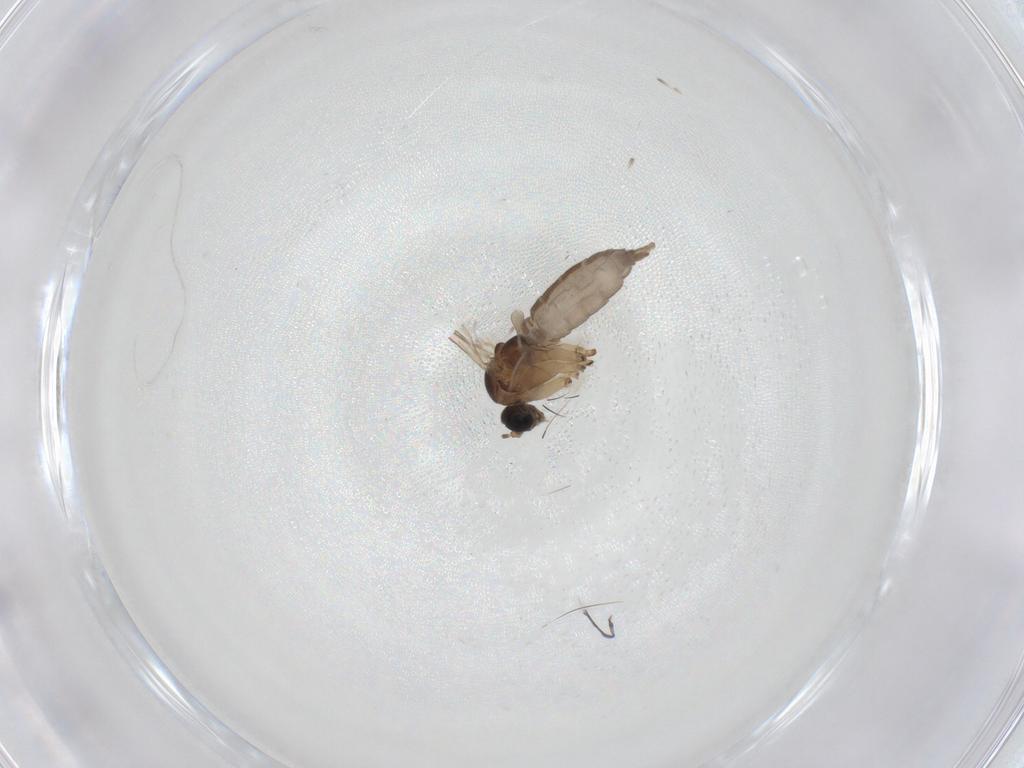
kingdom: Animalia
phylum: Arthropoda
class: Insecta
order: Diptera
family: Sciaridae
